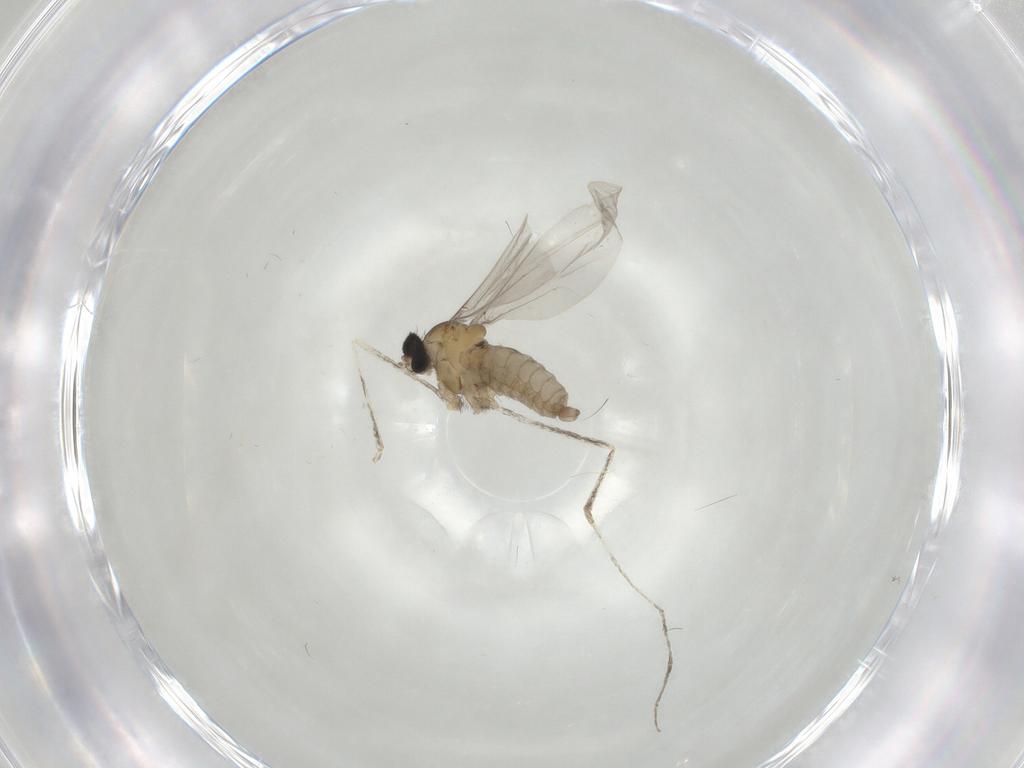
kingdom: Animalia
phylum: Arthropoda
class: Insecta
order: Diptera
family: Cecidomyiidae
